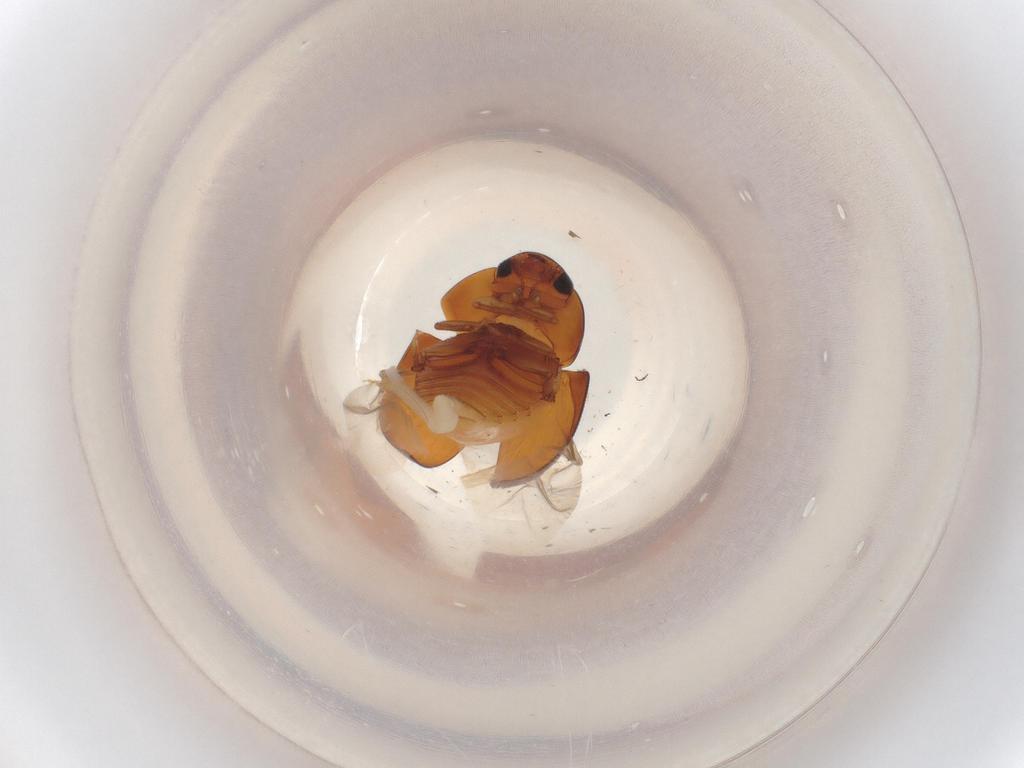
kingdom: Animalia
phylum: Arthropoda
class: Insecta
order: Coleoptera
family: Phalacridae
